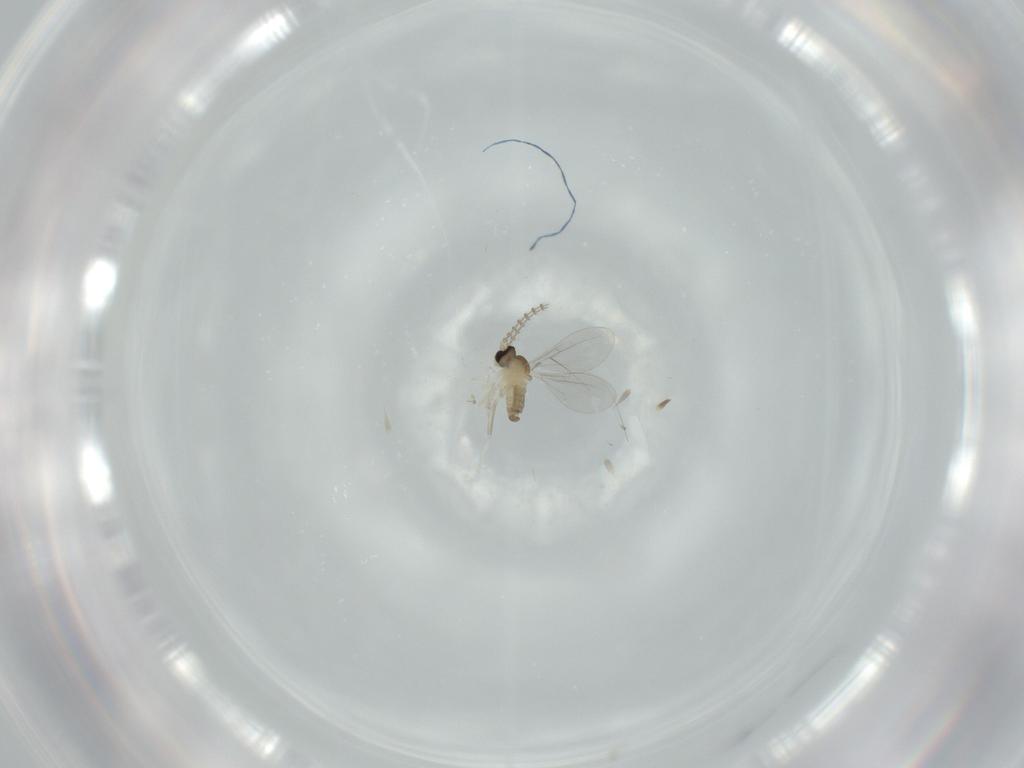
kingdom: Animalia
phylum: Arthropoda
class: Insecta
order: Diptera
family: Cecidomyiidae
